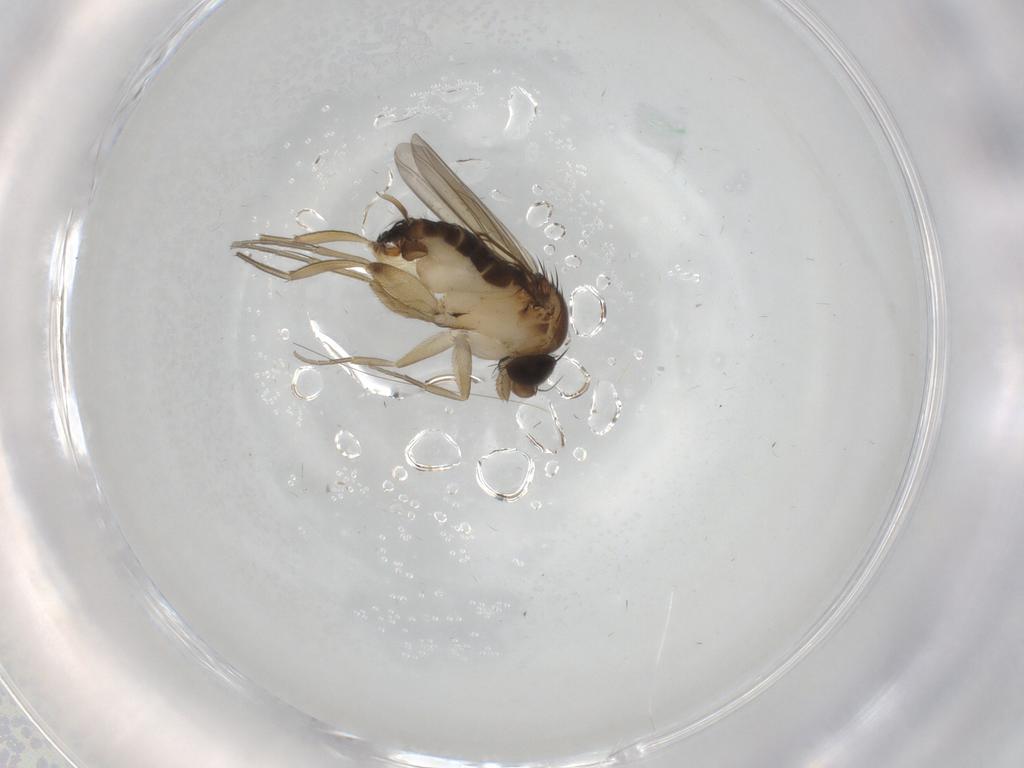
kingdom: Animalia
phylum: Arthropoda
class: Insecta
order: Diptera
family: Phoridae
